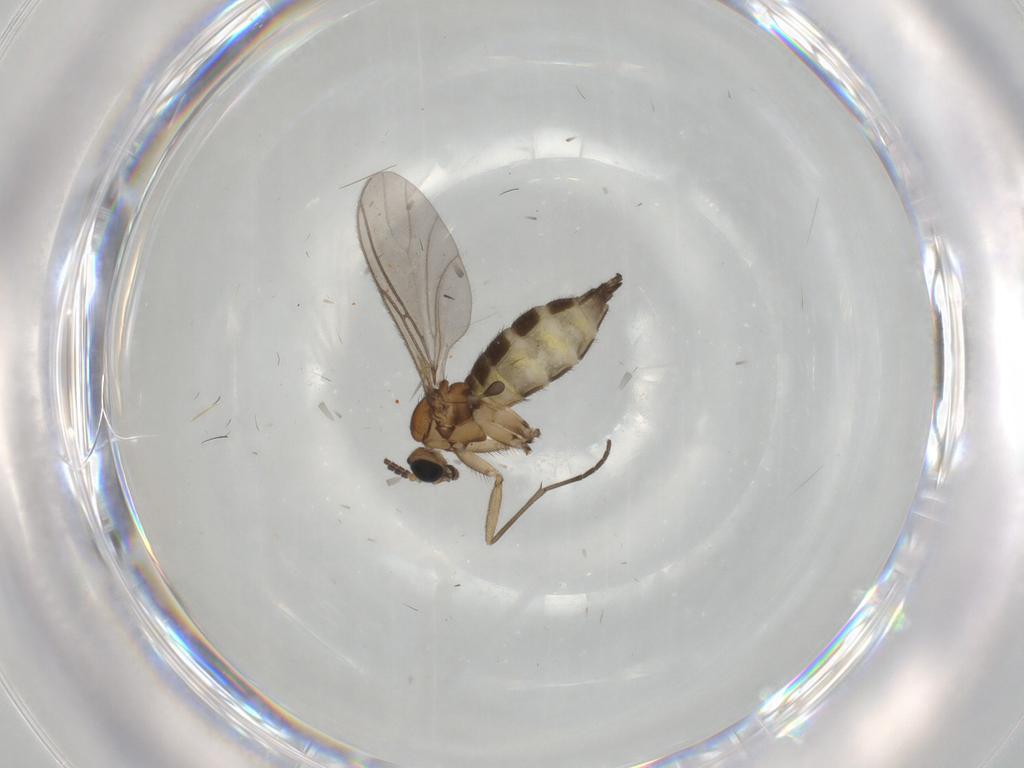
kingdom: Animalia
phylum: Arthropoda
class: Insecta
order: Diptera
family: Sciaridae
